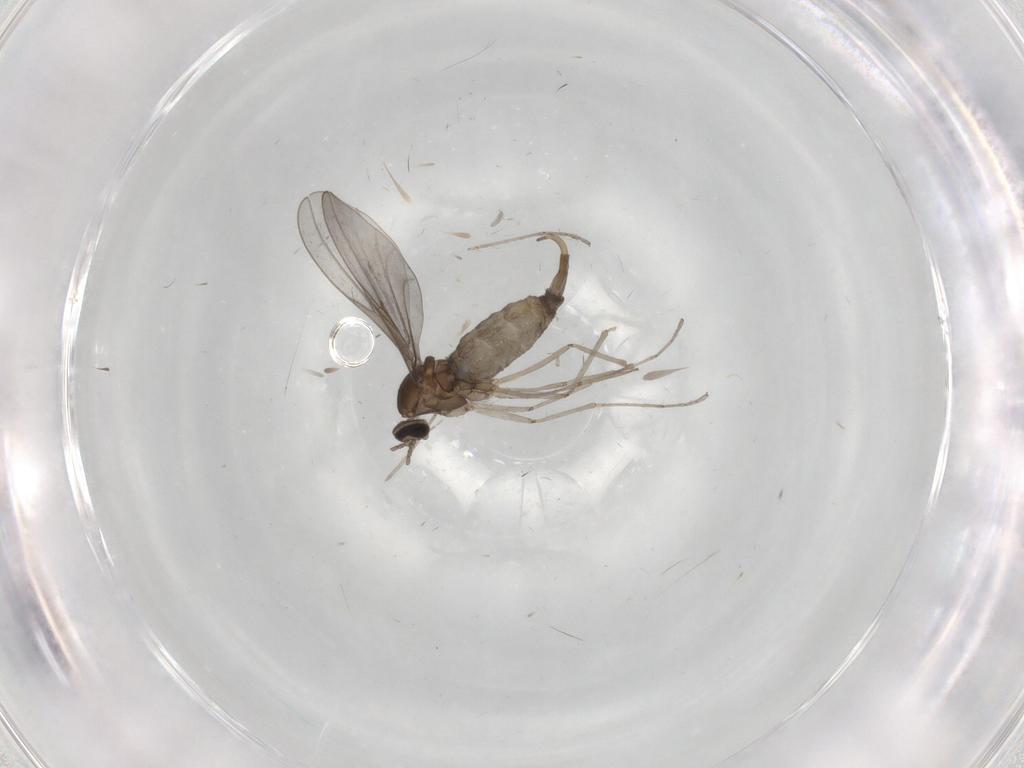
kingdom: Animalia
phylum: Arthropoda
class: Insecta
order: Diptera
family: Cecidomyiidae
